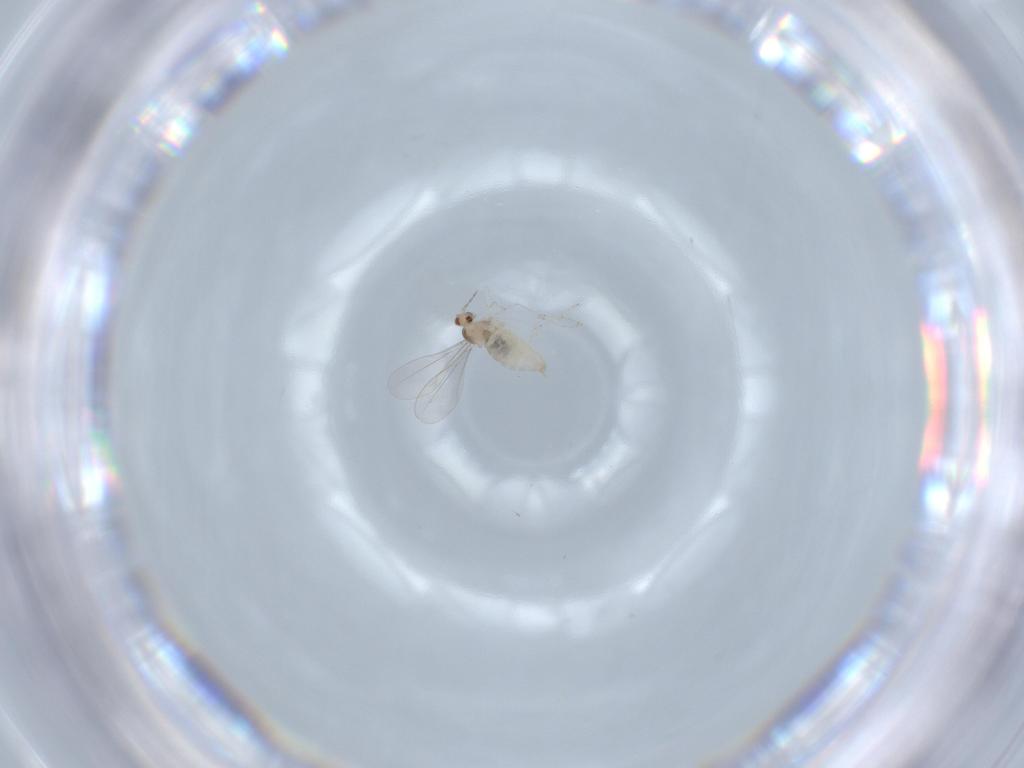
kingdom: Animalia
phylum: Arthropoda
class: Insecta
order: Diptera
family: Cecidomyiidae
